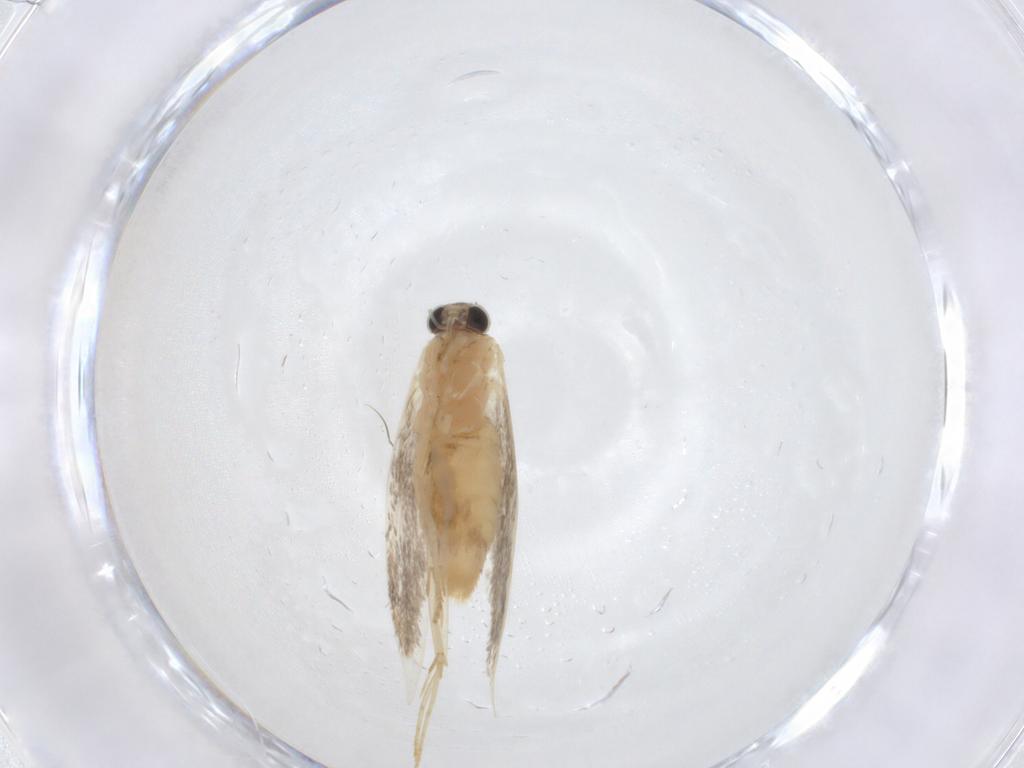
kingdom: Animalia
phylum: Arthropoda
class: Insecta
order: Lepidoptera
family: Tineidae
